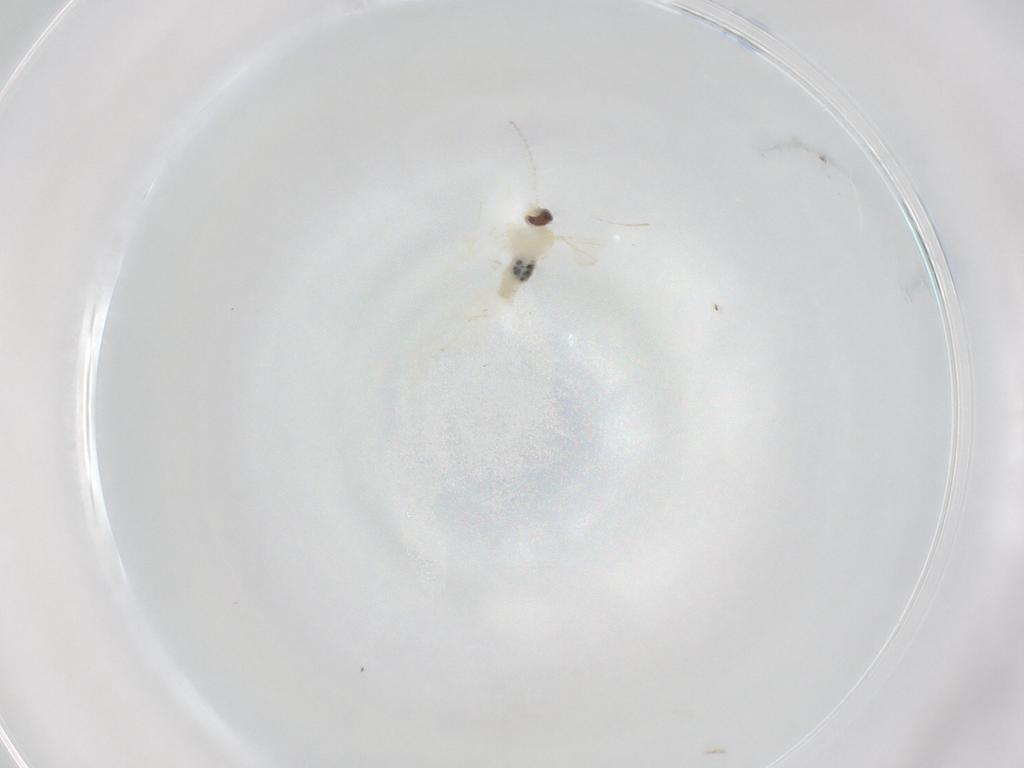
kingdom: Animalia
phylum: Arthropoda
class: Insecta
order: Diptera
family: Cecidomyiidae
